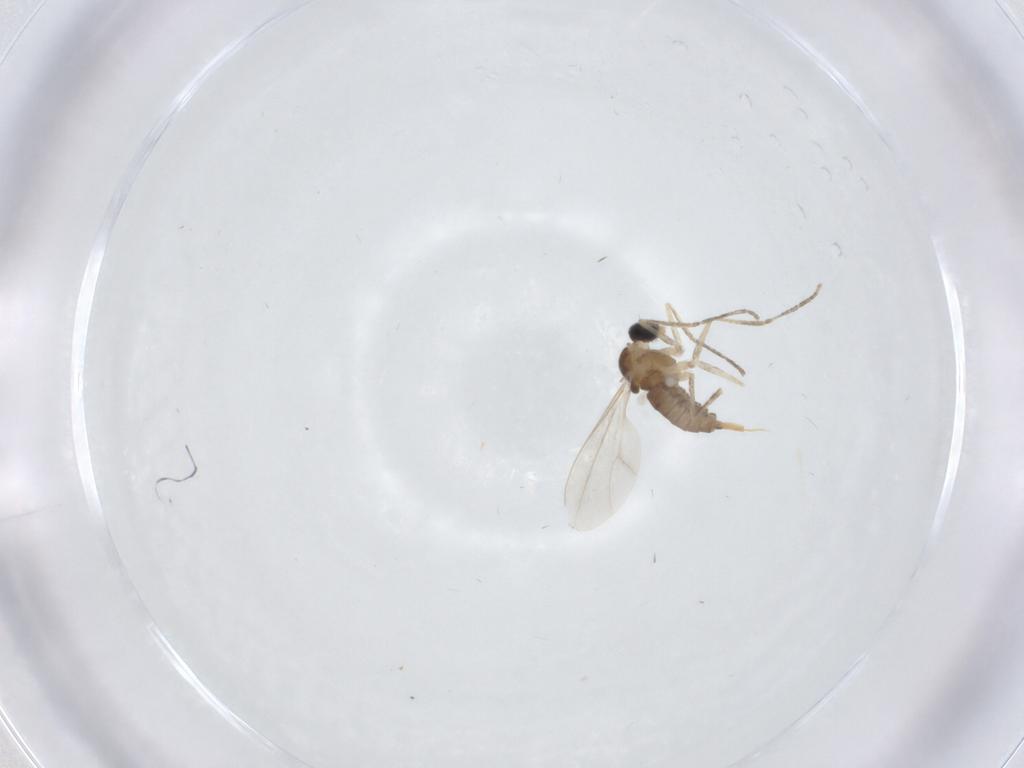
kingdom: Animalia
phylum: Arthropoda
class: Insecta
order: Diptera
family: Cecidomyiidae
